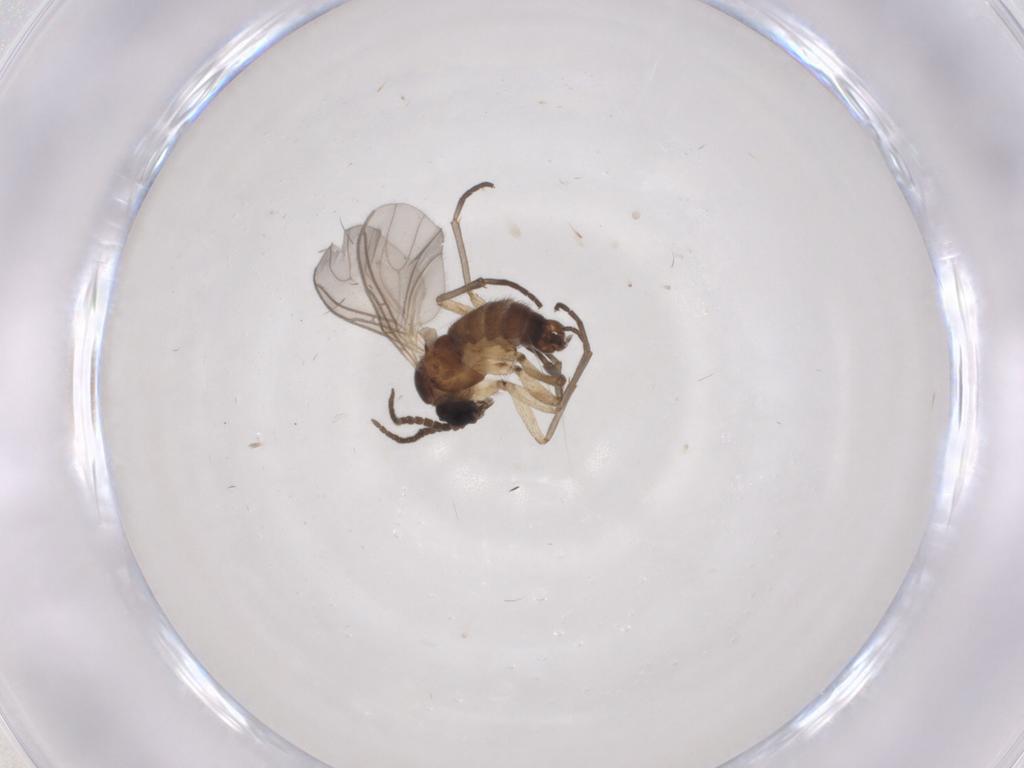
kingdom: Animalia
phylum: Arthropoda
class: Insecta
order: Diptera
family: Sciaridae
